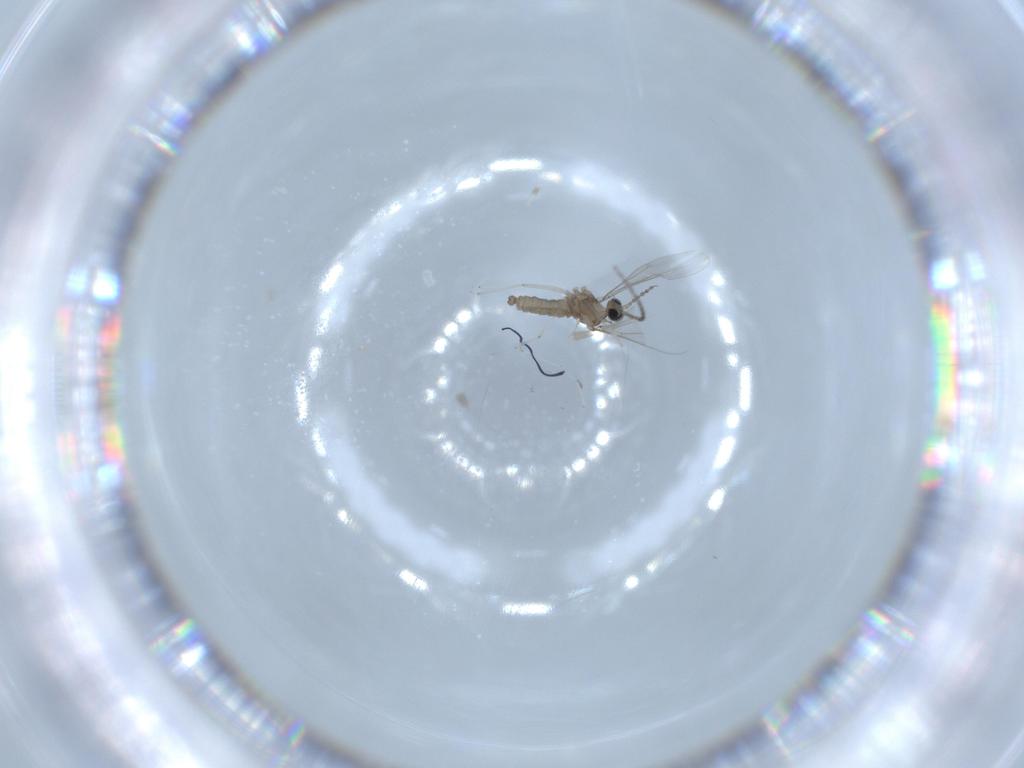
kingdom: Animalia
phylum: Arthropoda
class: Insecta
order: Diptera
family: Cecidomyiidae
